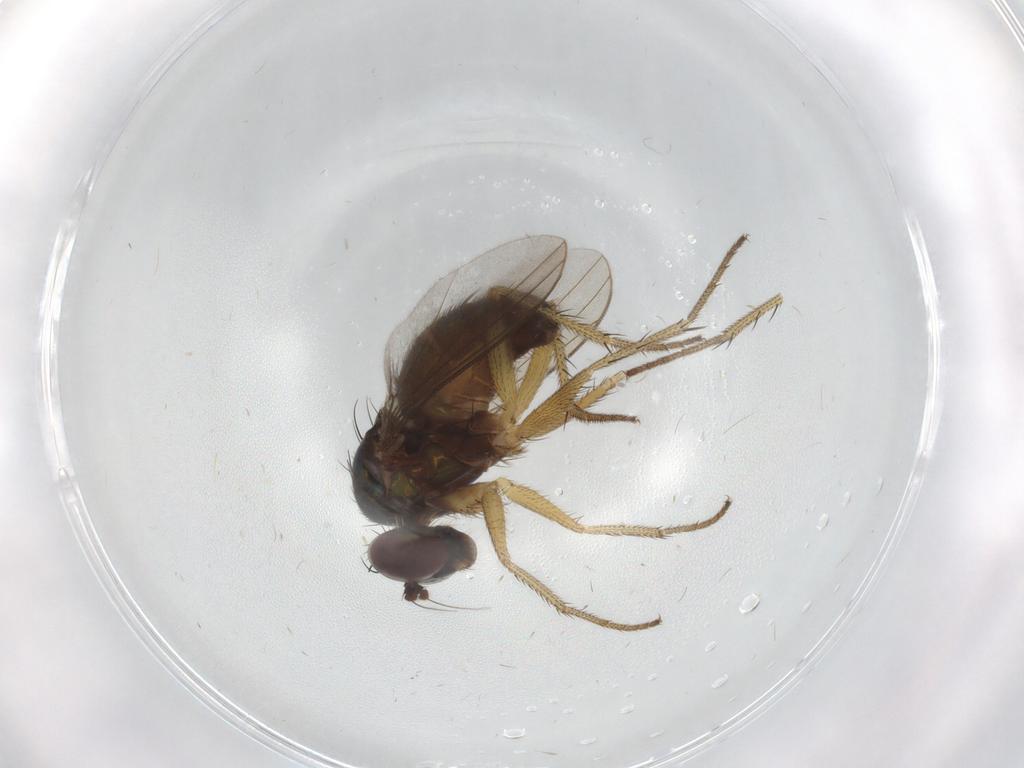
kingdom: Animalia
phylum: Arthropoda
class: Insecta
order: Diptera
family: Dolichopodidae
